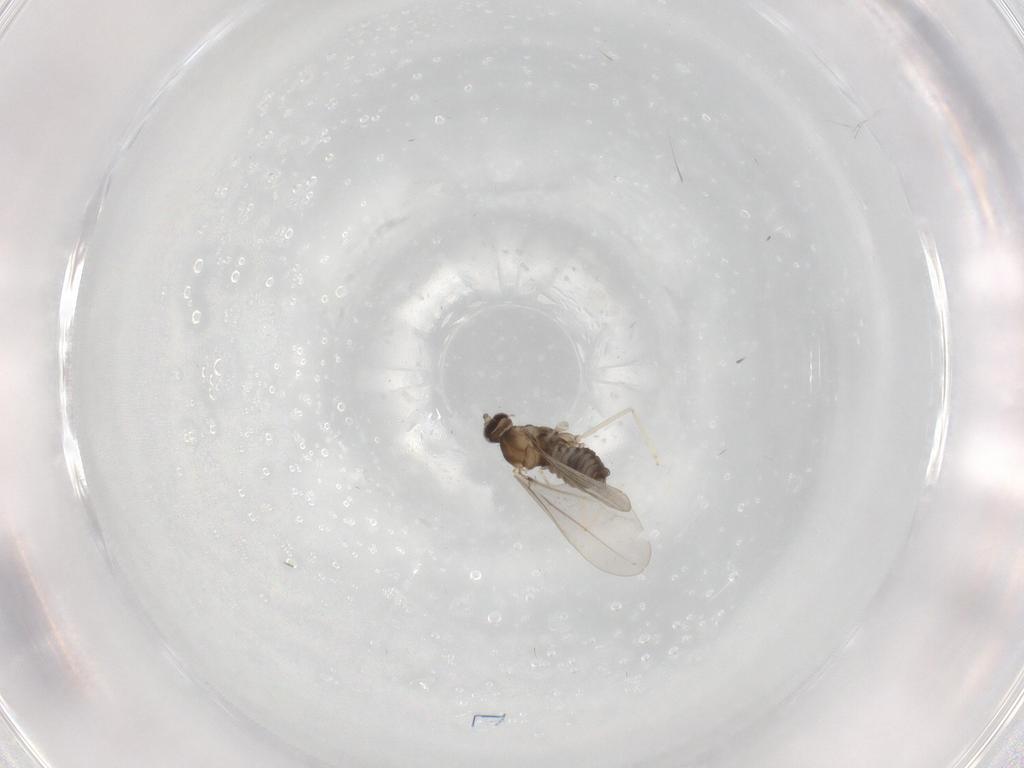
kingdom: Animalia
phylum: Arthropoda
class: Insecta
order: Diptera
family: Cecidomyiidae
